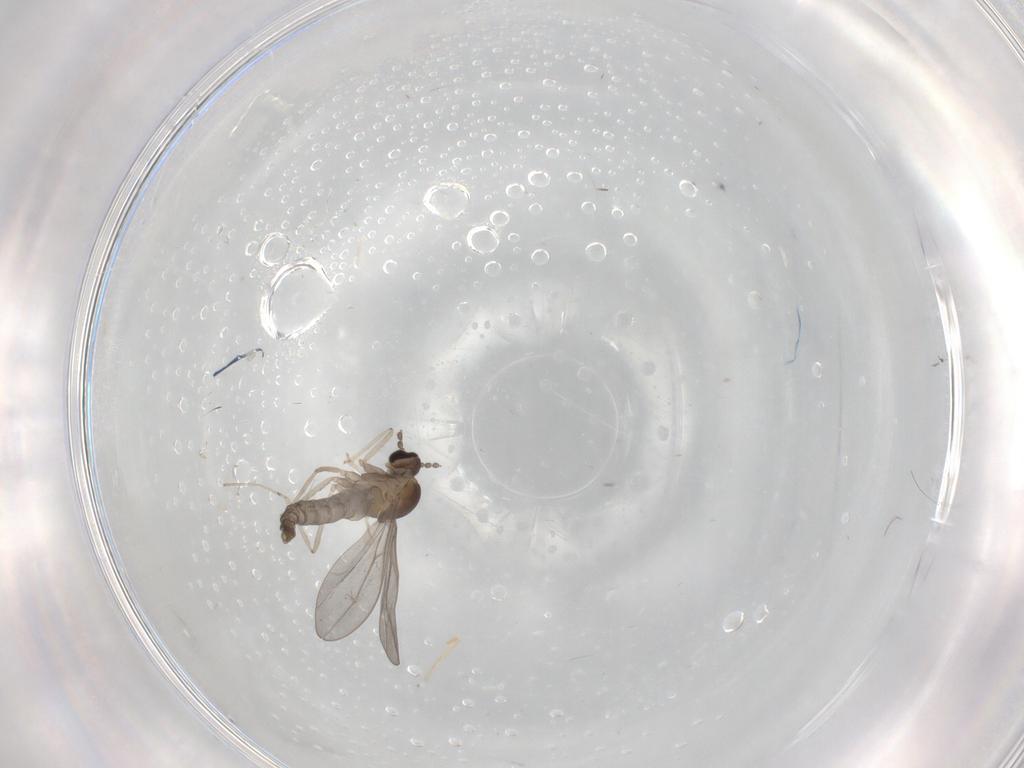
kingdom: Animalia
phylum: Arthropoda
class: Insecta
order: Diptera
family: Cecidomyiidae
